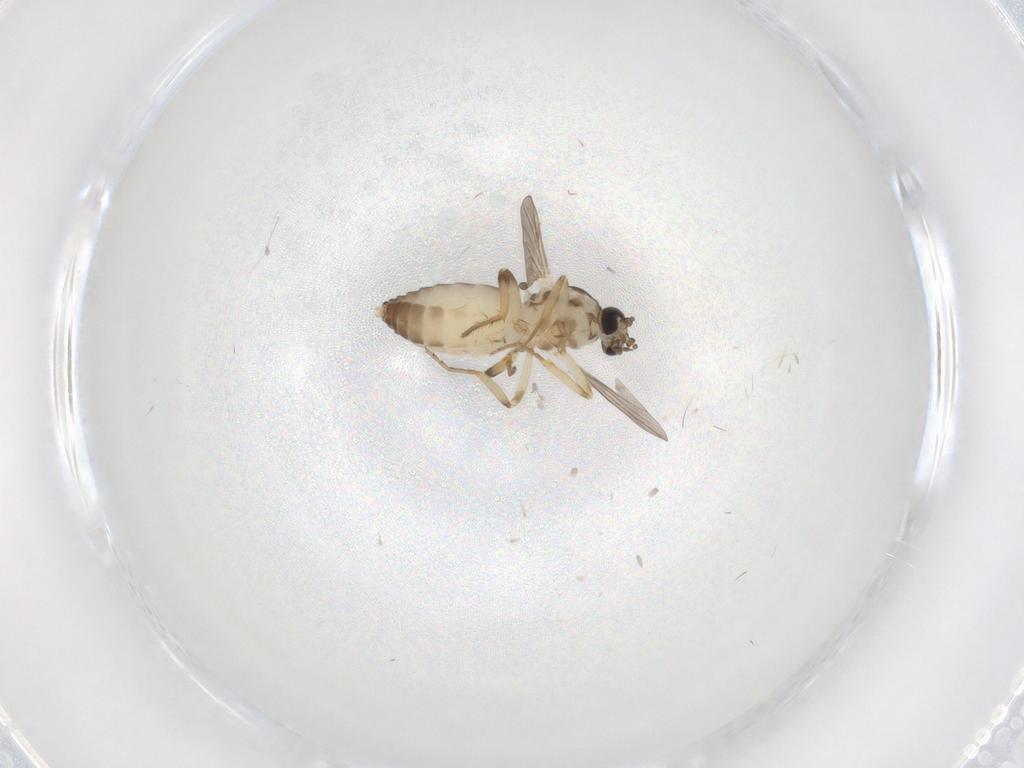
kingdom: Animalia
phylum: Arthropoda
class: Insecta
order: Diptera
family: Ceratopogonidae
